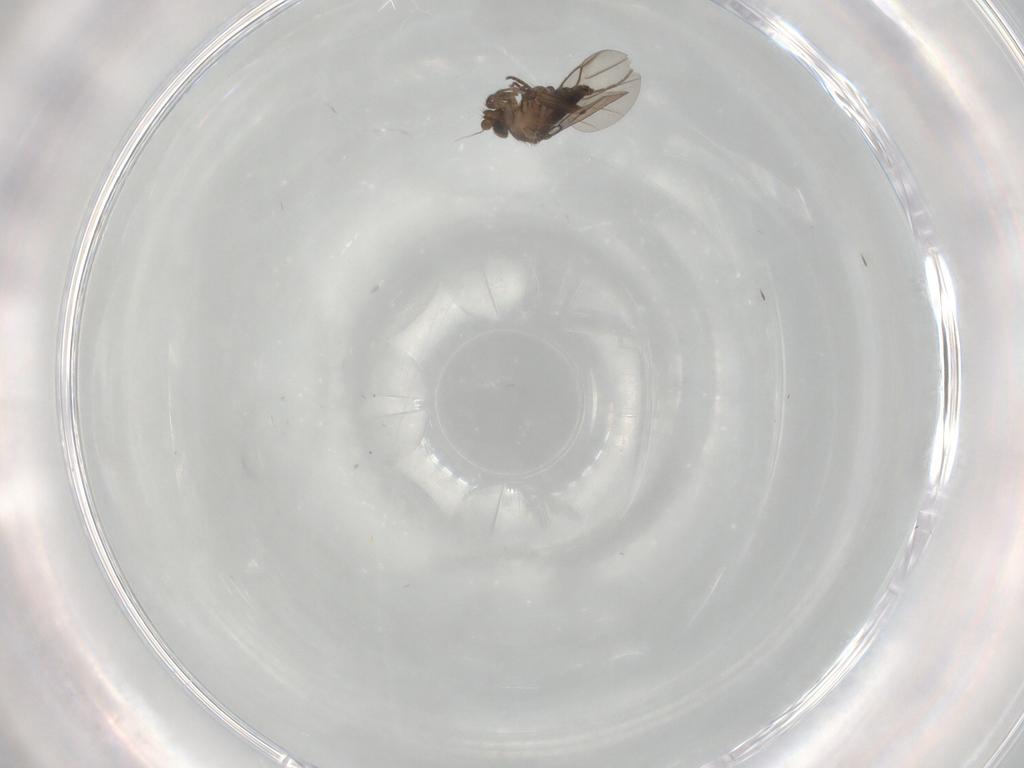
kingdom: Animalia
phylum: Arthropoda
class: Insecta
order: Diptera
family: Phoridae
